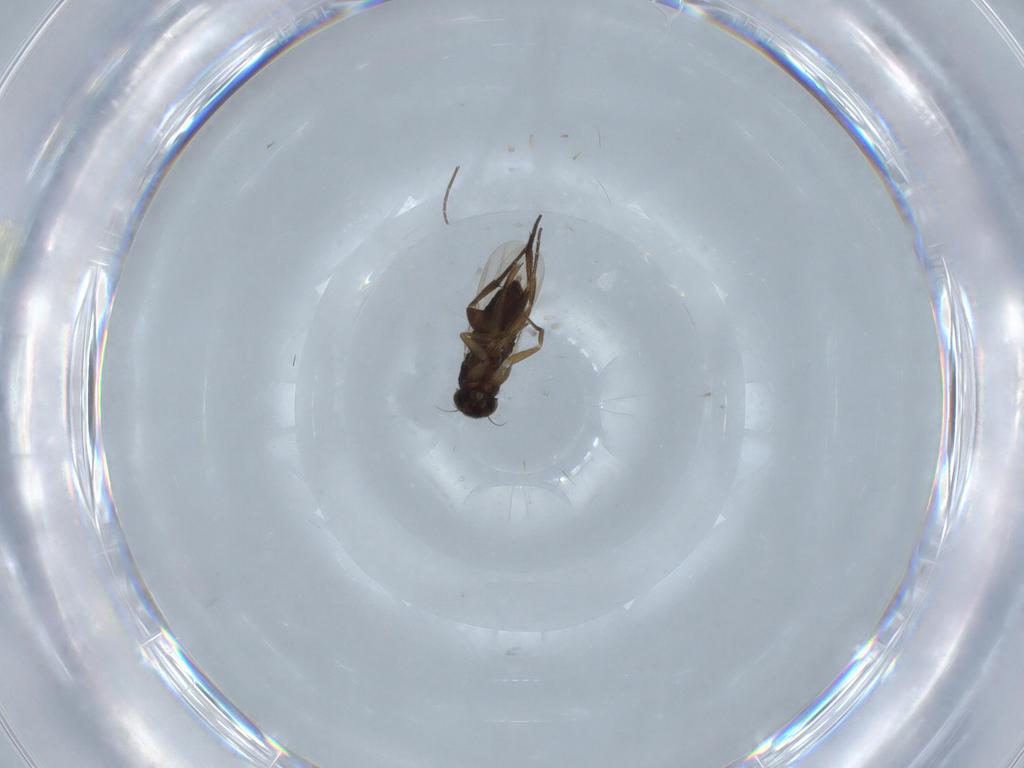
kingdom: Animalia
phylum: Arthropoda
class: Insecta
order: Diptera
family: Phoridae
